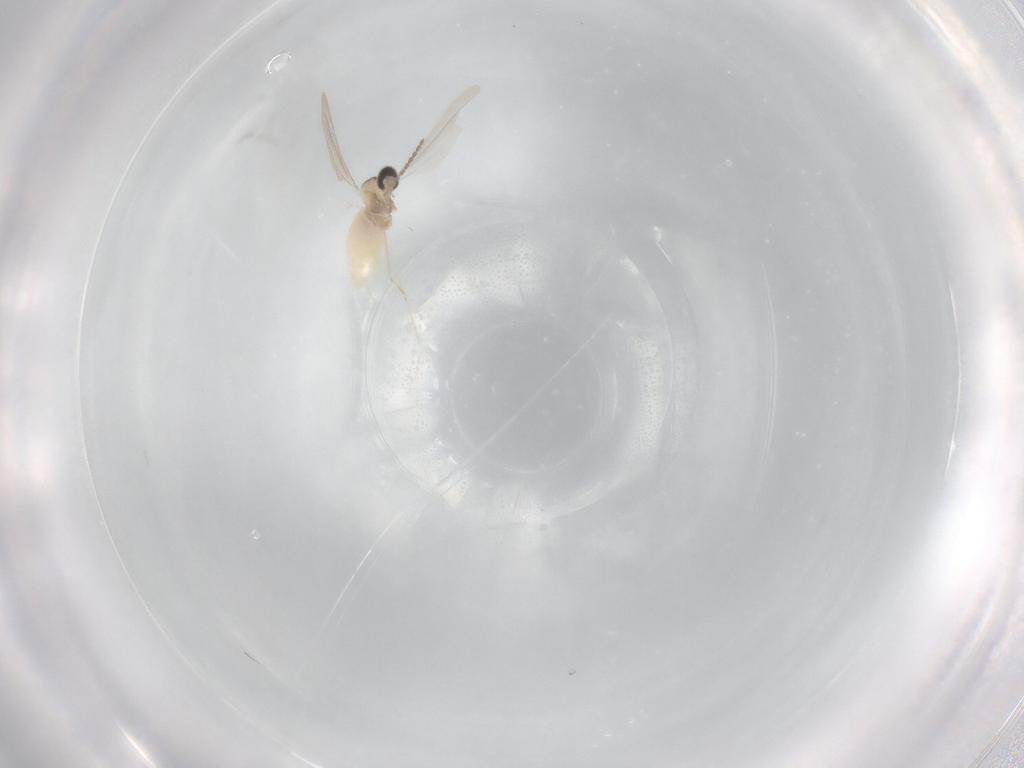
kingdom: Animalia
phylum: Arthropoda
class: Insecta
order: Diptera
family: Cecidomyiidae
